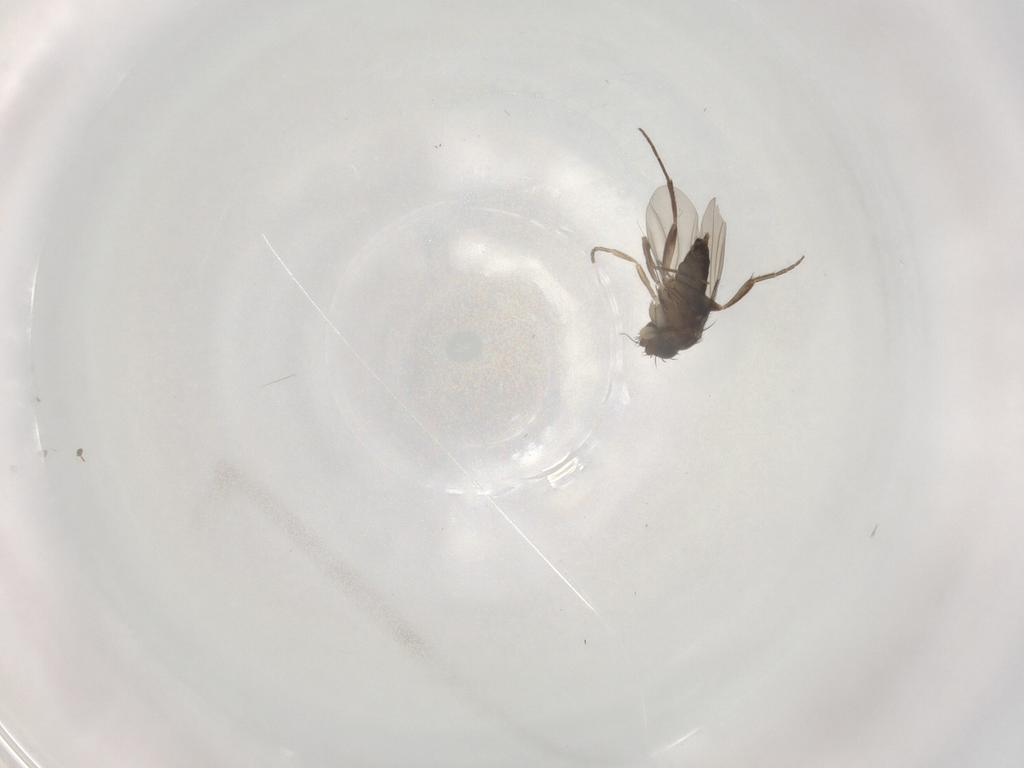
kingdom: Animalia
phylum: Arthropoda
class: Insecta
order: Diptera
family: Phoridae
